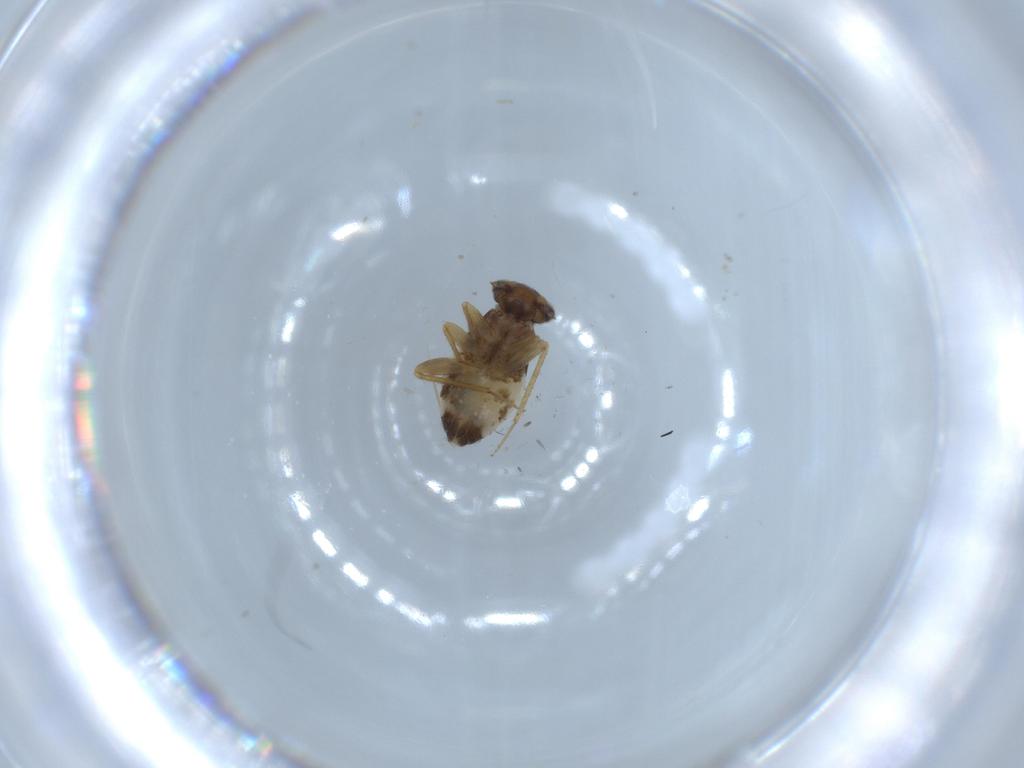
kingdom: Animalia
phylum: Arthropoda
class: Insecta
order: Psocodea
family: Lepidopsocidae
